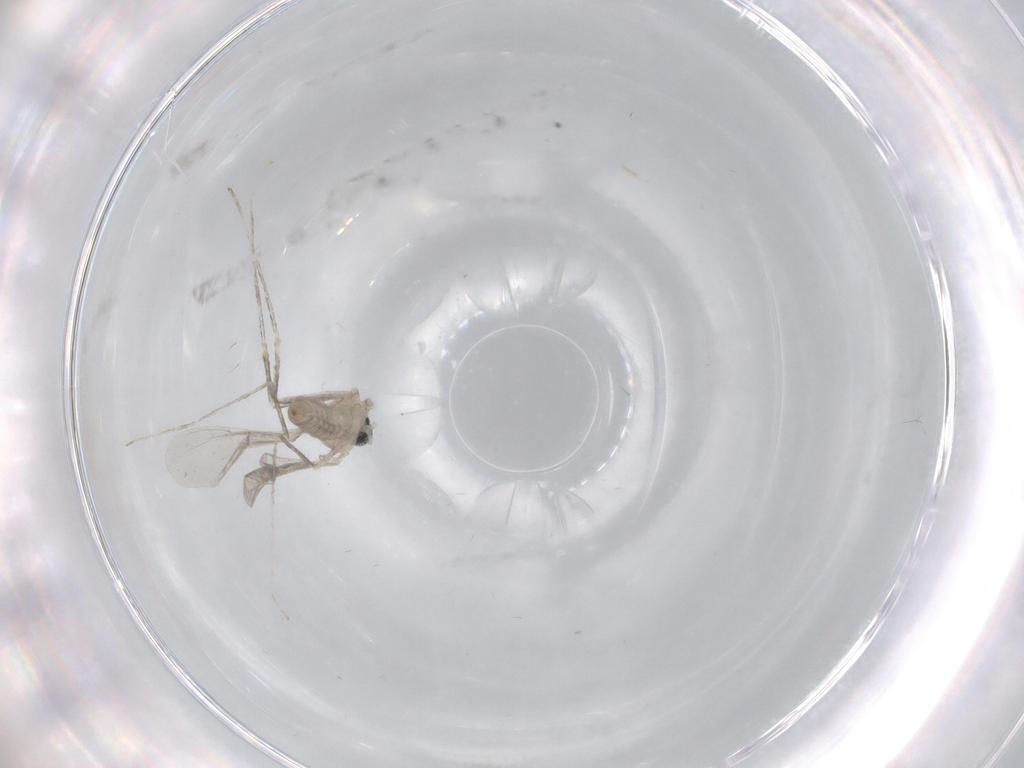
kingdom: Animalia
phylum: Arthropoda
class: Insecta
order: Diptera
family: Cecidomyiidae
